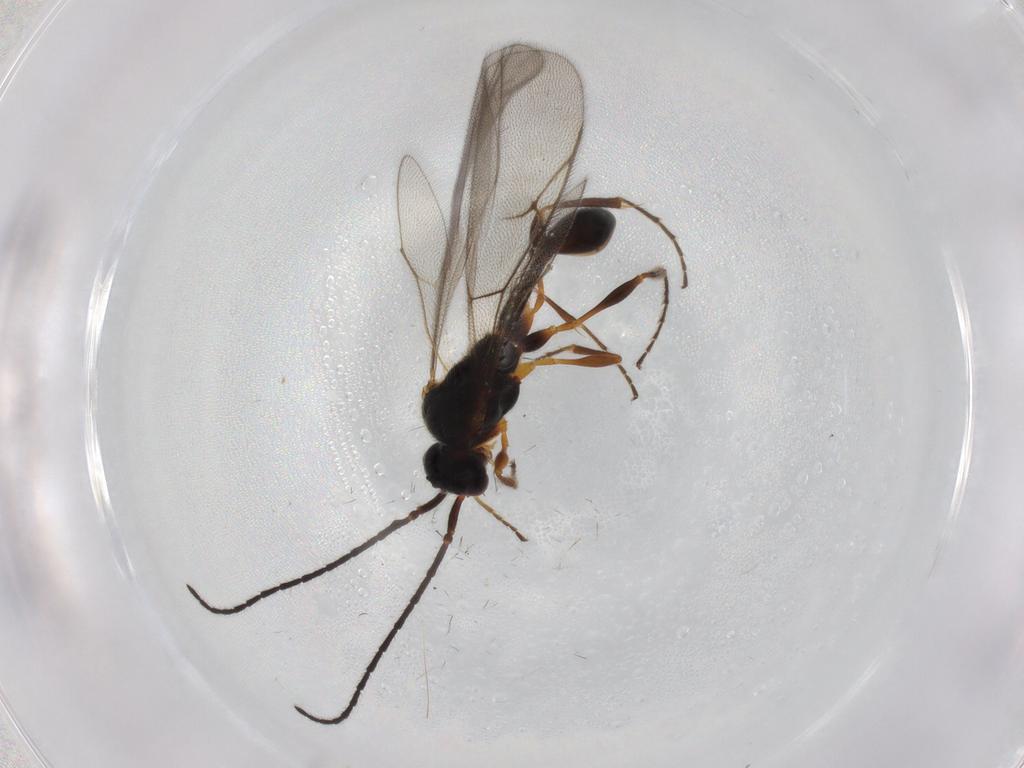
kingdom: Animalia
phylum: Arthropoda
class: Insecta
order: Hymenoptera
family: Diapriidae
